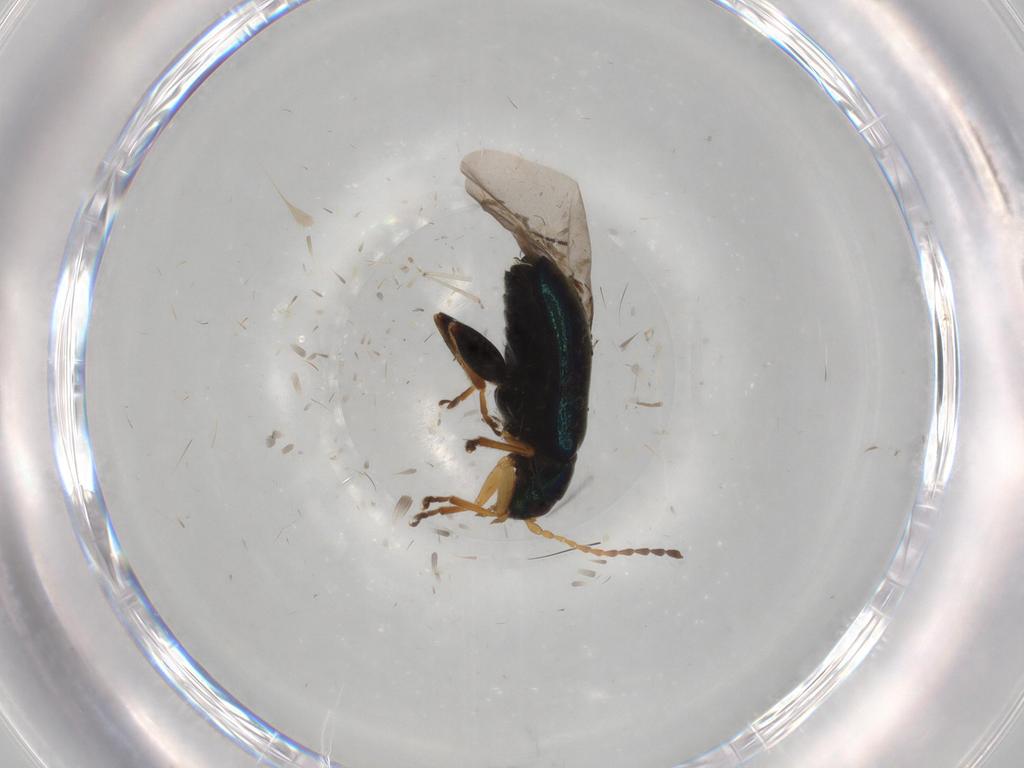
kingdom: Animalia
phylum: Arthropoda
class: Insecta
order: Coleoptera
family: Chrysomelidae
